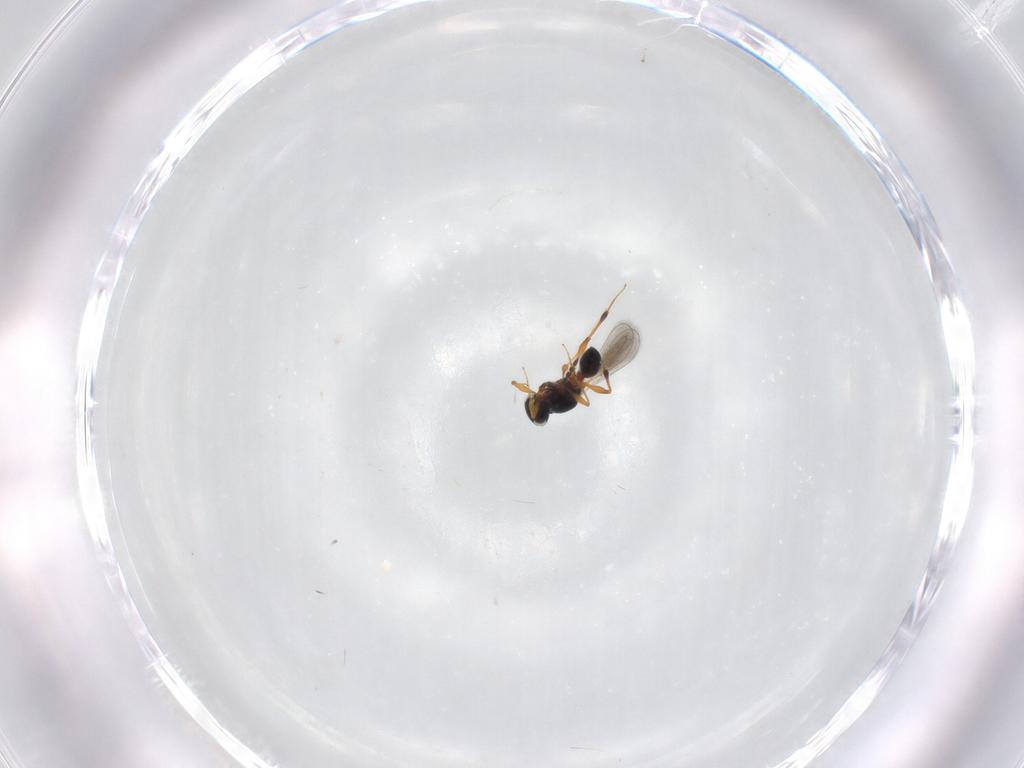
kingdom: Animalia
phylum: Arthropoda
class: Insecta
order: Hymenoptera
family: Platygastridae
